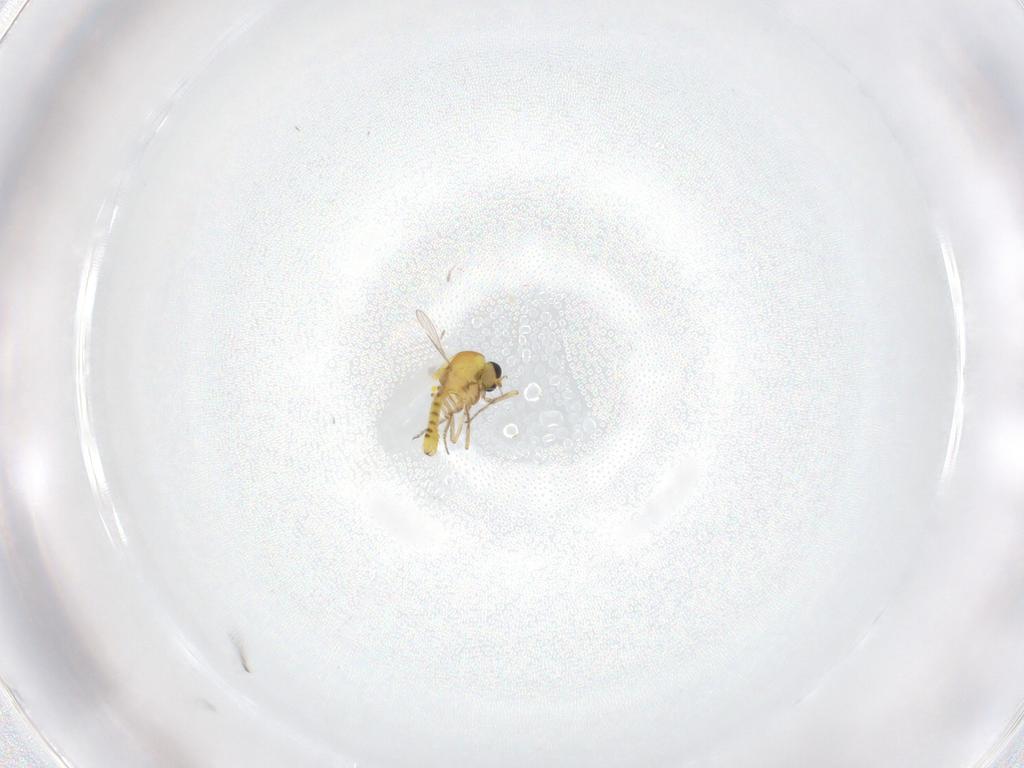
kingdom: Animalia
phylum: Arthropoda
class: Insecta
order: Diptera
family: Ceratopogonidae
